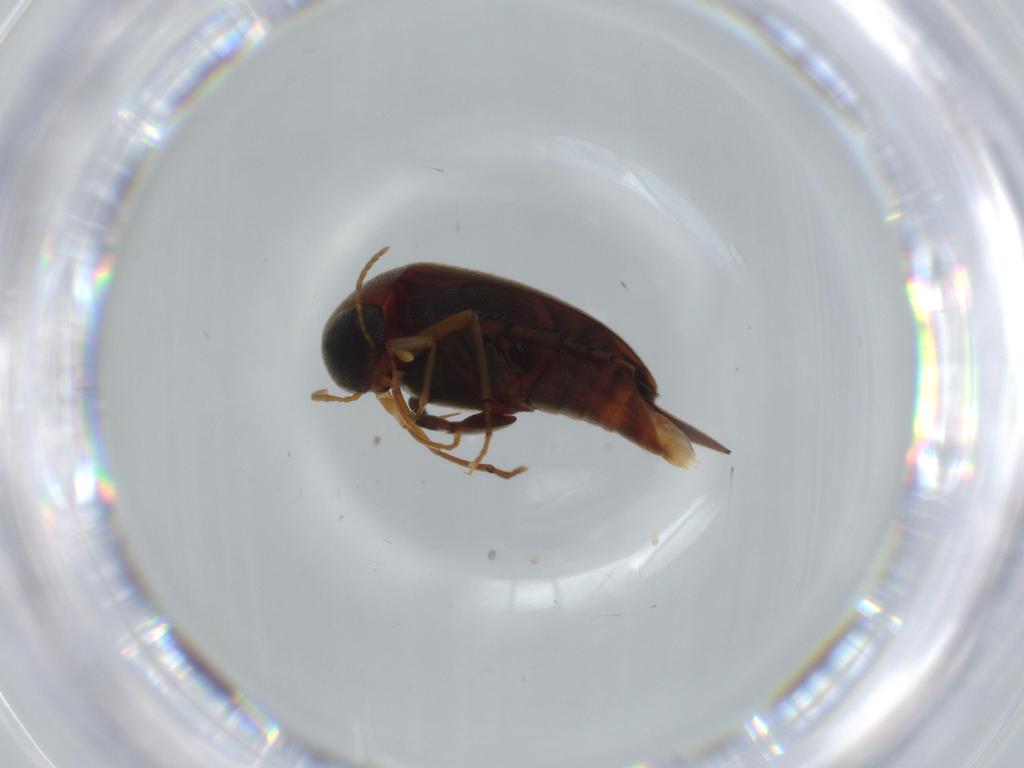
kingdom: Animalia
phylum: Arthropoda
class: Insecta
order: Coleoptera
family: Mordellidae
